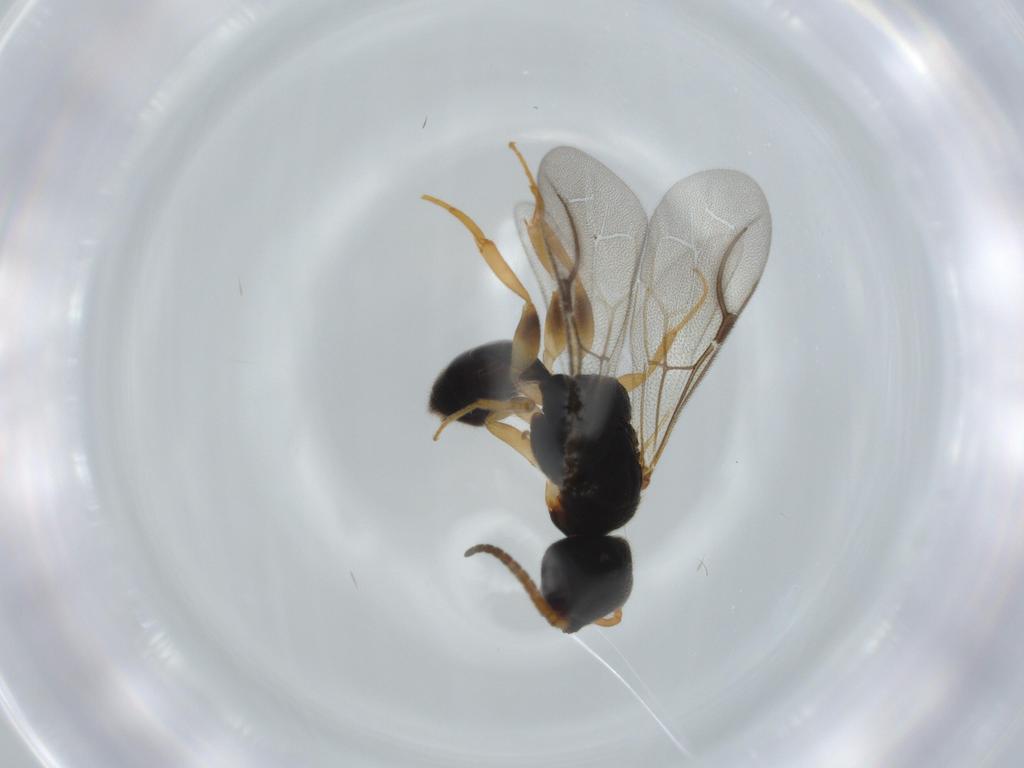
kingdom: Animalia
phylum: Arthropoda
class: Insecta
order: Hymenoptera
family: Bethylidae
